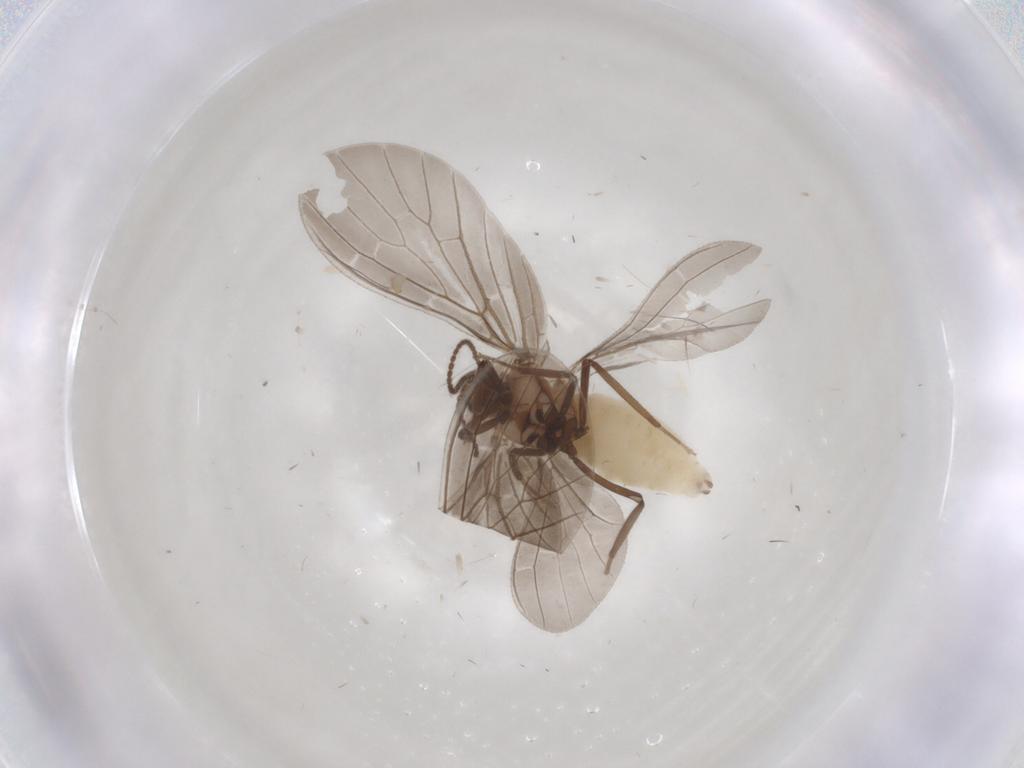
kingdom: Animalia
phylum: Arthropoda
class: Insecta
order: Neuroptera
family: Coniopterygidae
